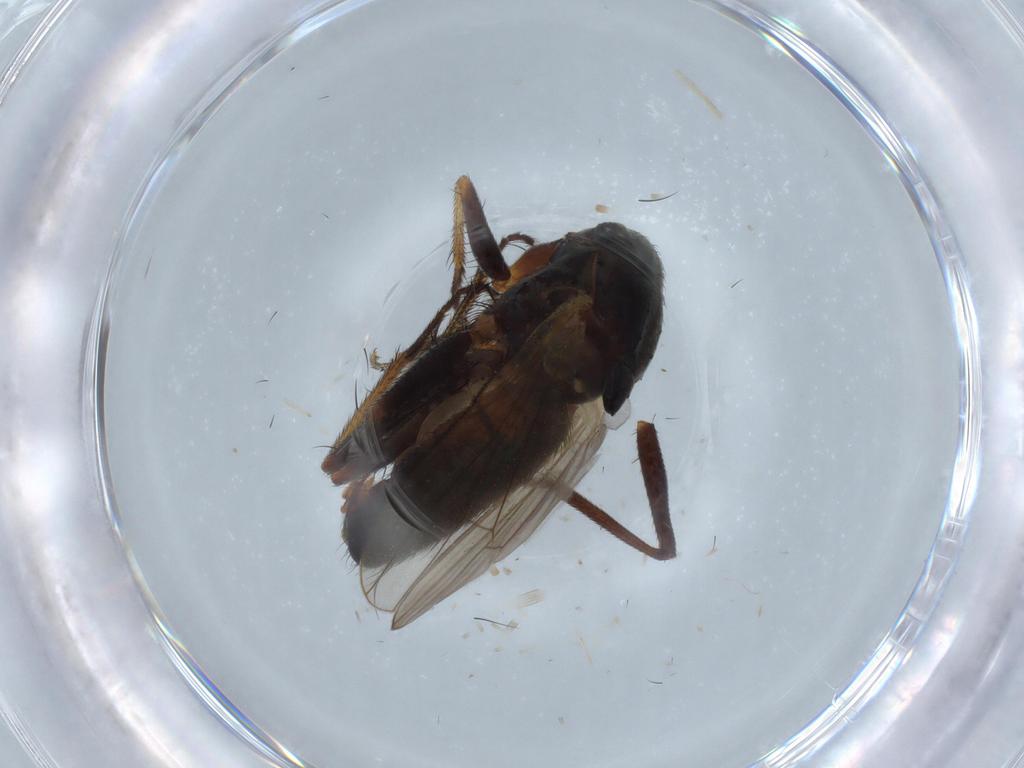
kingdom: Animalia
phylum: Arthropoda
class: Insecta
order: Diptera
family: Muscidae
